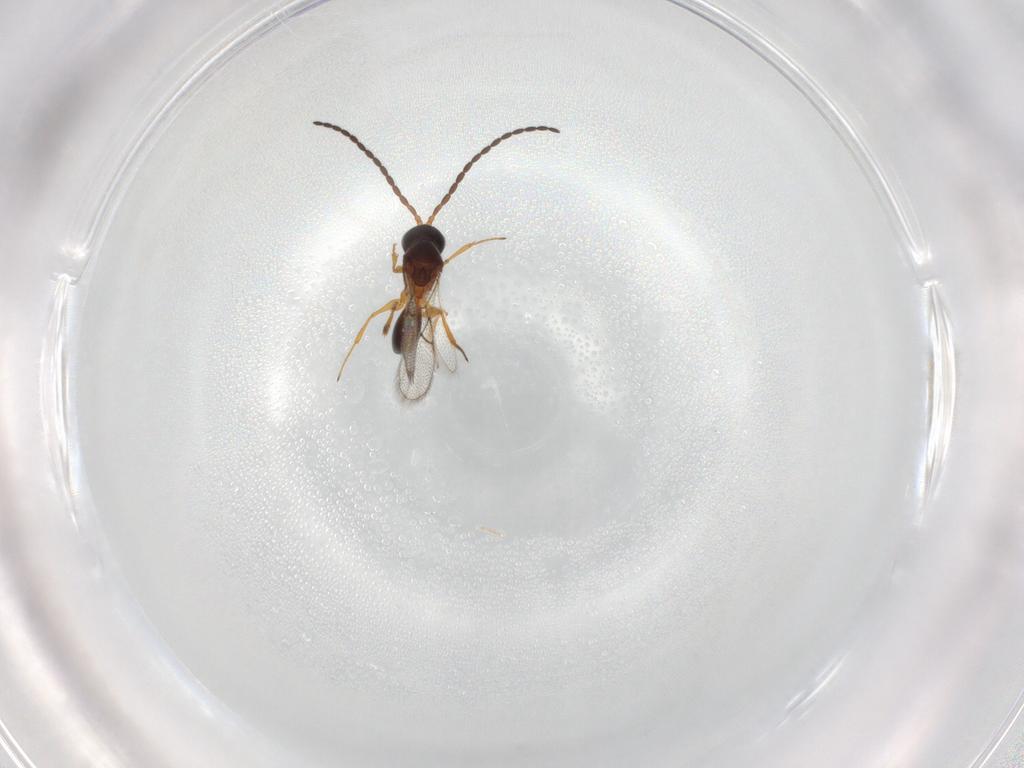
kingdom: Animalia
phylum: Arthropoda
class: Insecta
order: Hymenoptera
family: Figitidae
